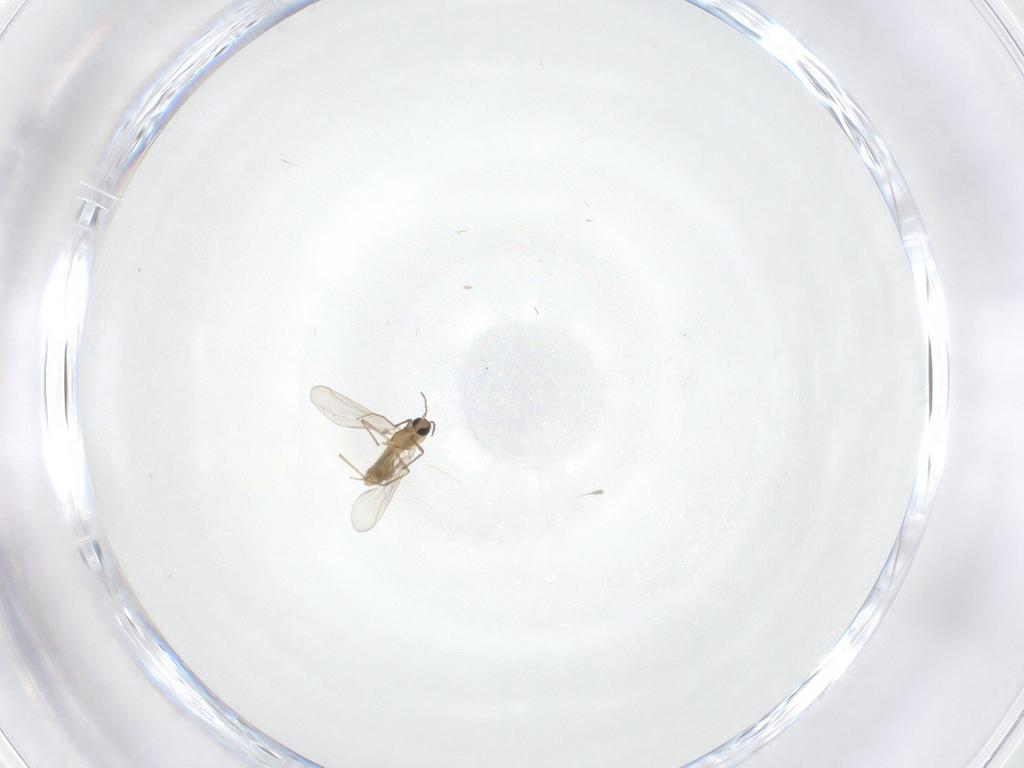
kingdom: Animalia
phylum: Arthropoda
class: Insecta
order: Diptera
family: Chironomidae
